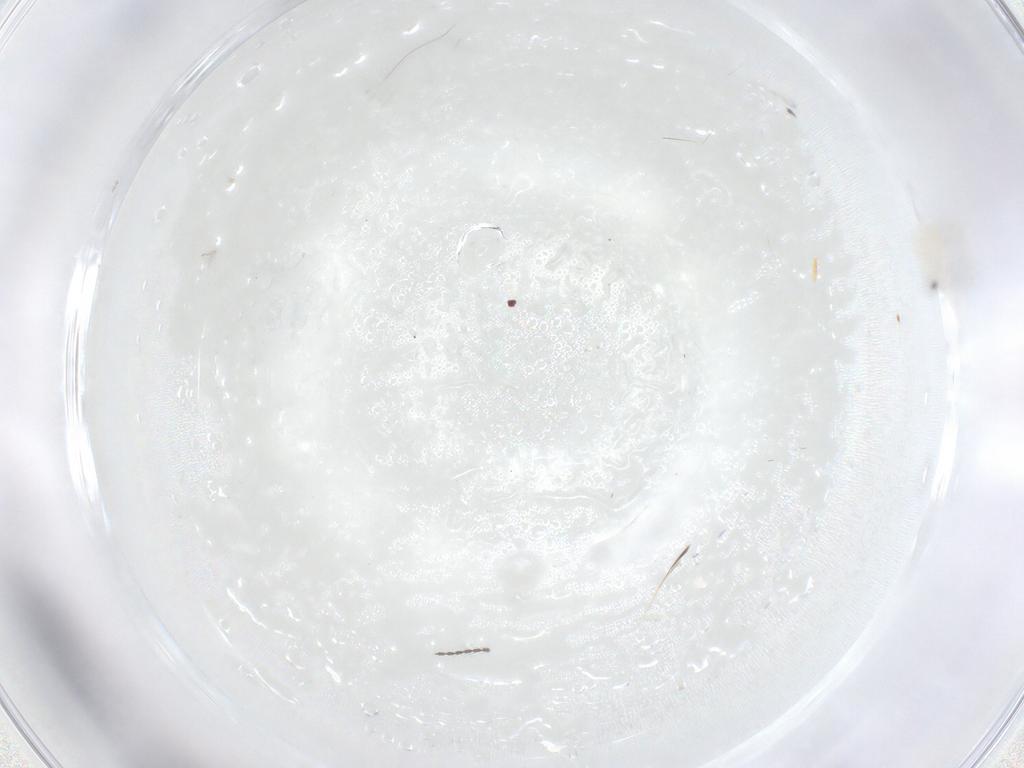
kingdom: Animalia
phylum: Arthropoda
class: Insecta
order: Hymenoptera
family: Mymaridae
